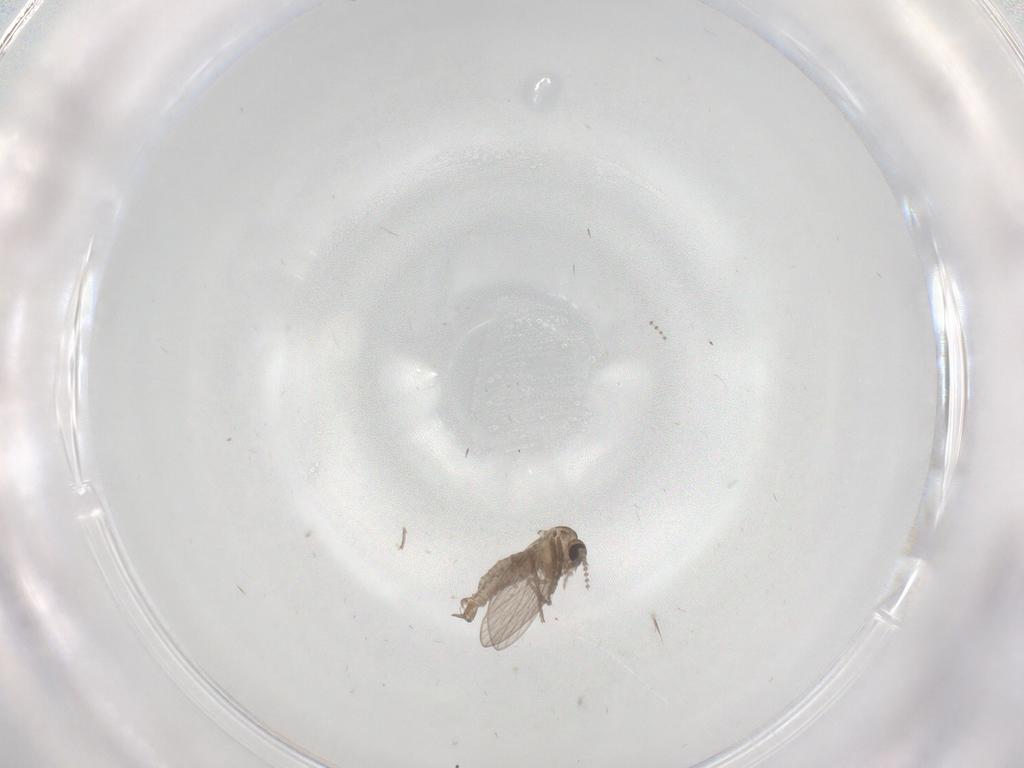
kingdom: Animalia
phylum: Arthropoda
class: Insecta
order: Diptera
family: Psychodidae
